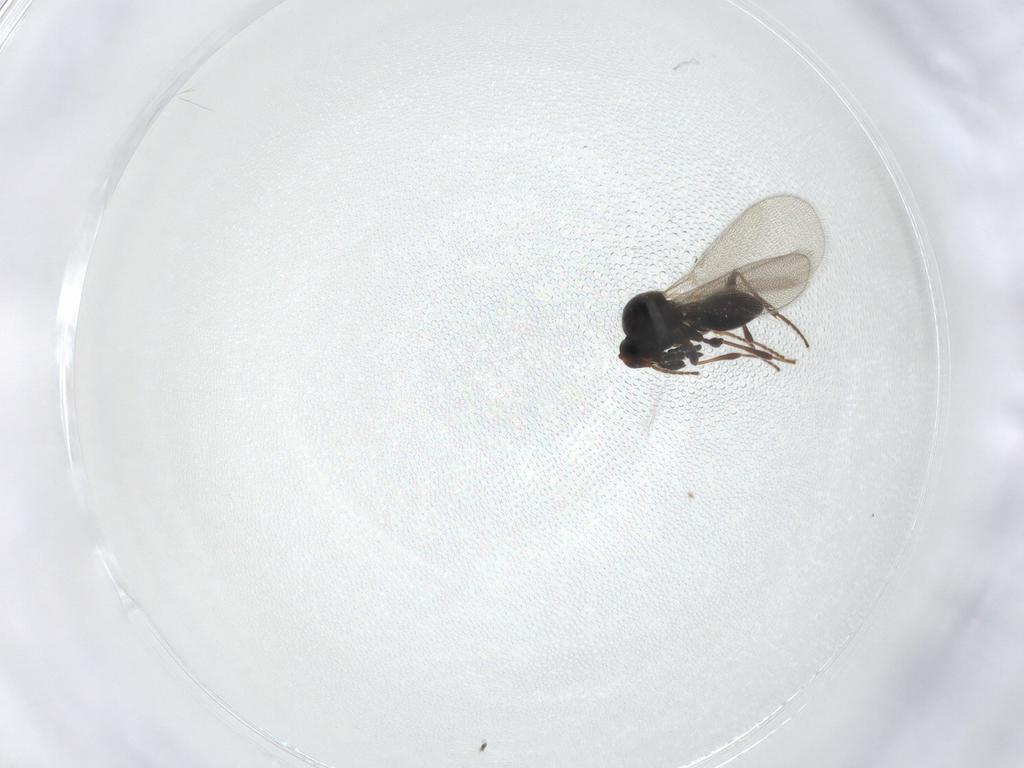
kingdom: Animalia
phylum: Arthropoda
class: Insecta
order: Hymenoptera
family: Platygastridae
